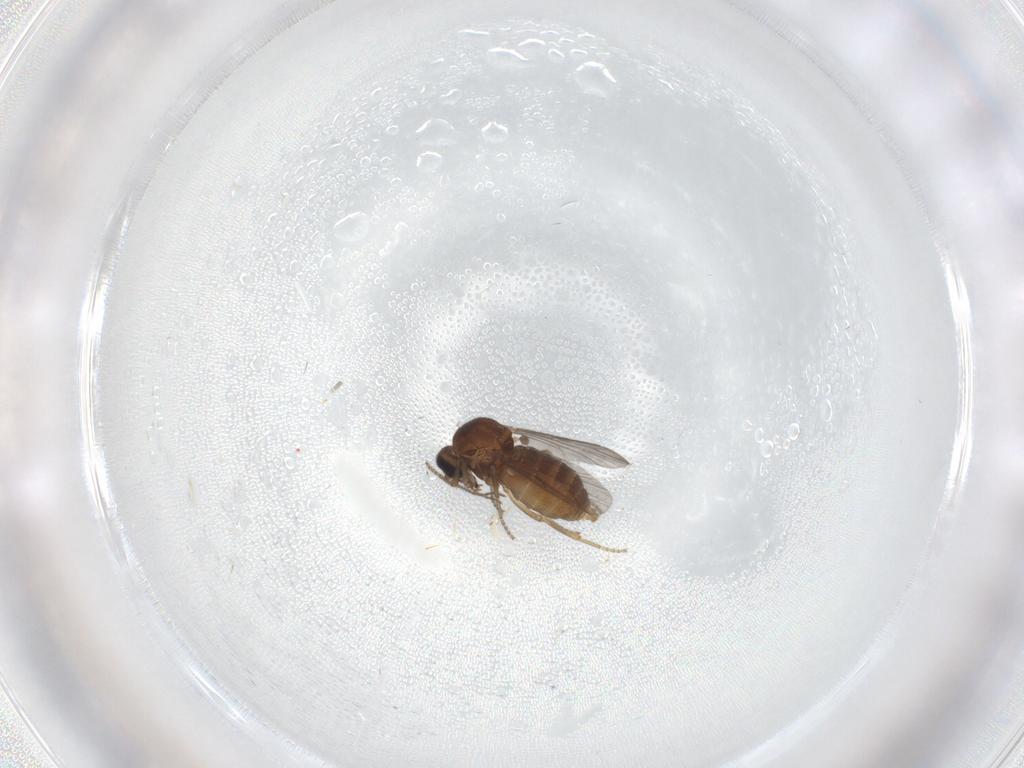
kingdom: Animalia
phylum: Arthropoda
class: Insecta
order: Diptera
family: Ceratopogonidae
